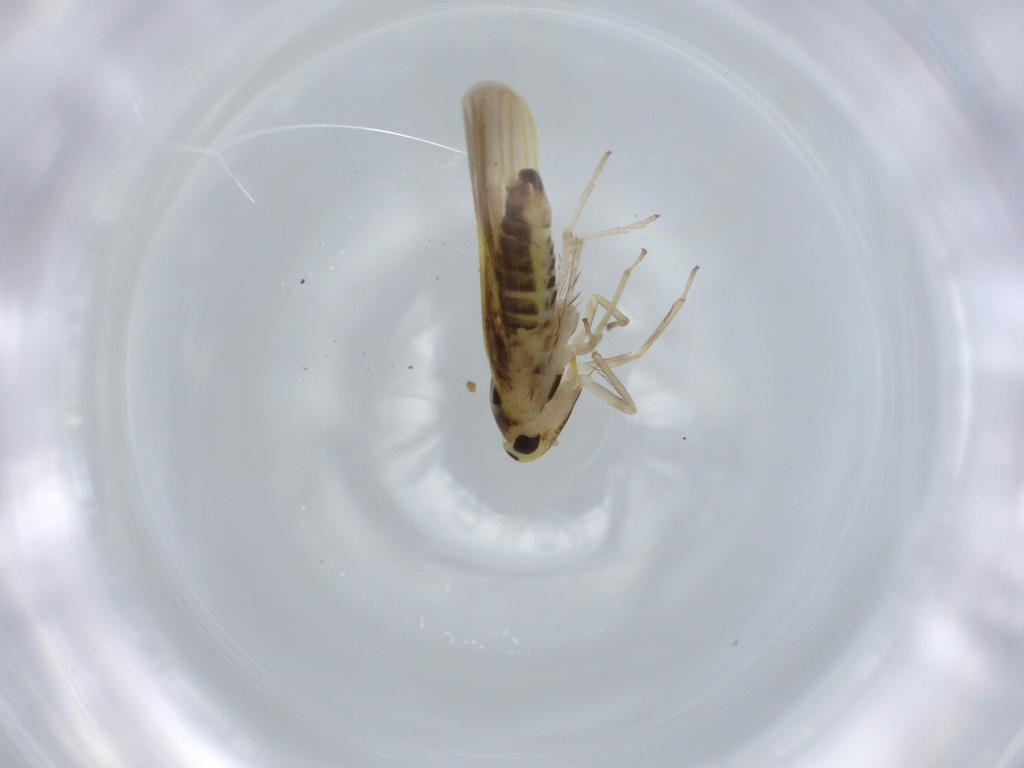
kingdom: Animalia
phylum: Arthropoda
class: Insecta
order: Hemiptera
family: Cicadellidae
